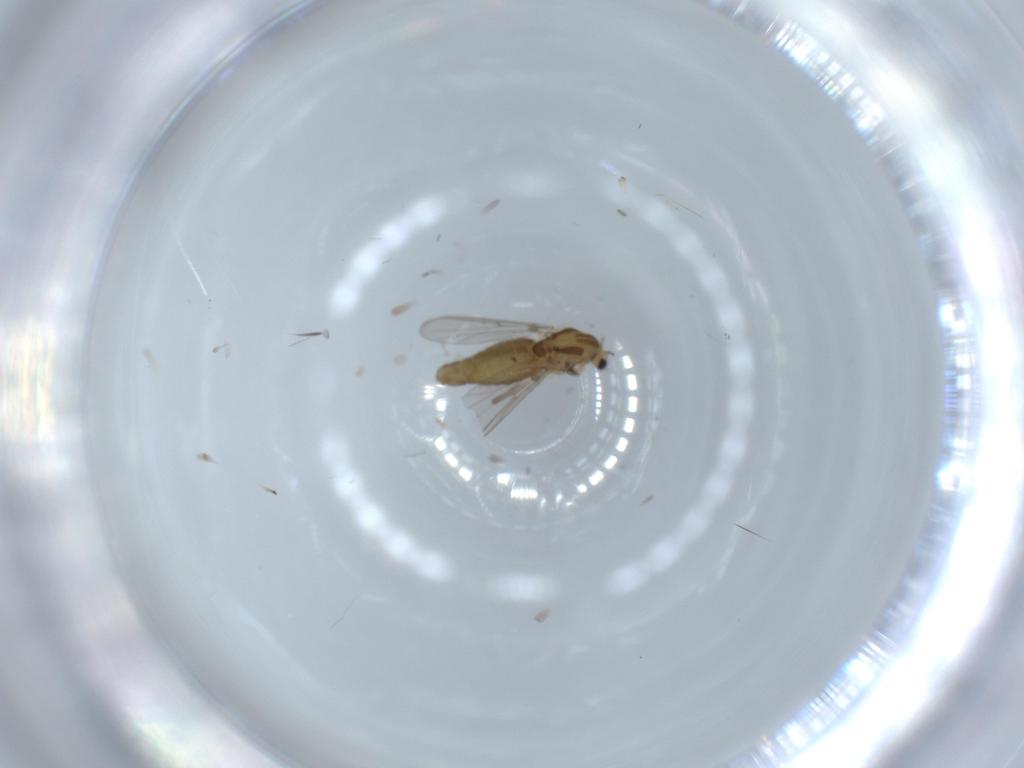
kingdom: Animalia
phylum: Arthropoda
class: Insecta
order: Diptera
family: Chironomidae
